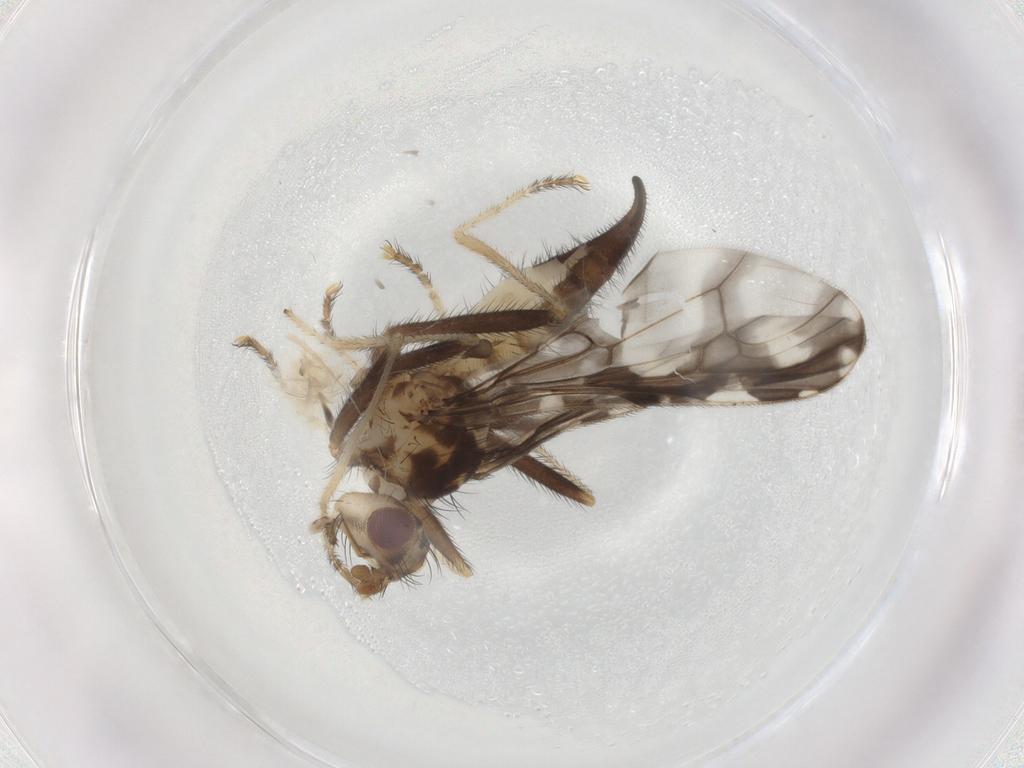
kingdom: Animalia
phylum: Arthropoda
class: Insecta
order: Diptera
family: Pyrgotidae
